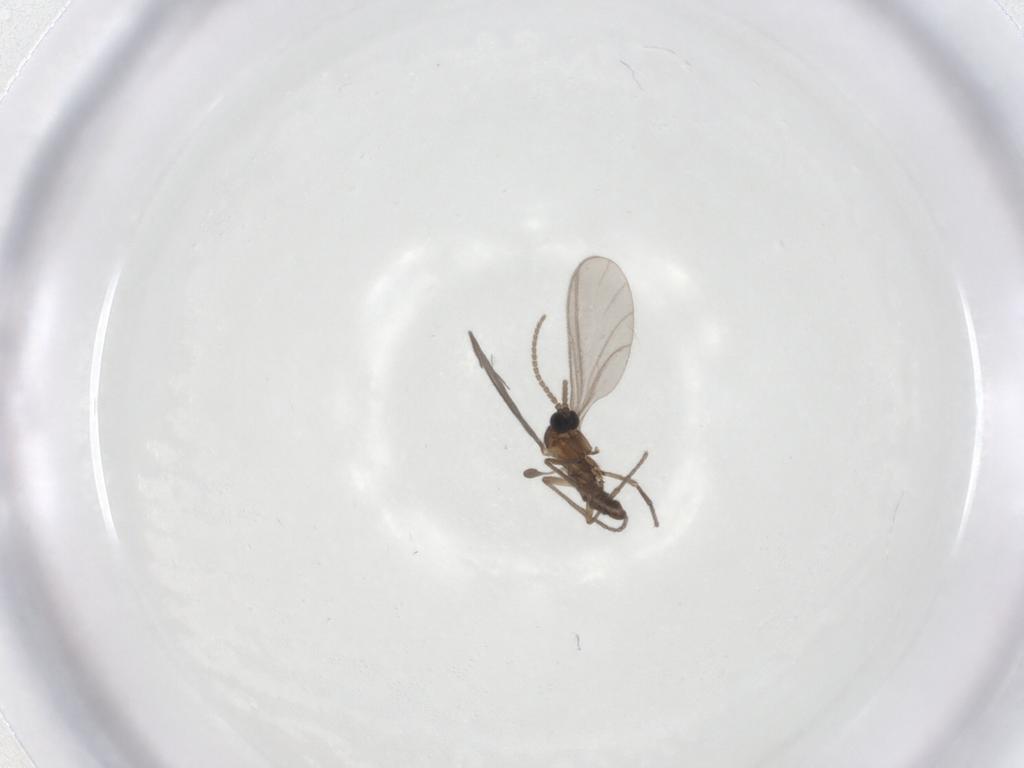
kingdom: Animalia
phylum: Arthropoda
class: Insecta
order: Diptera
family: Sciaridae
